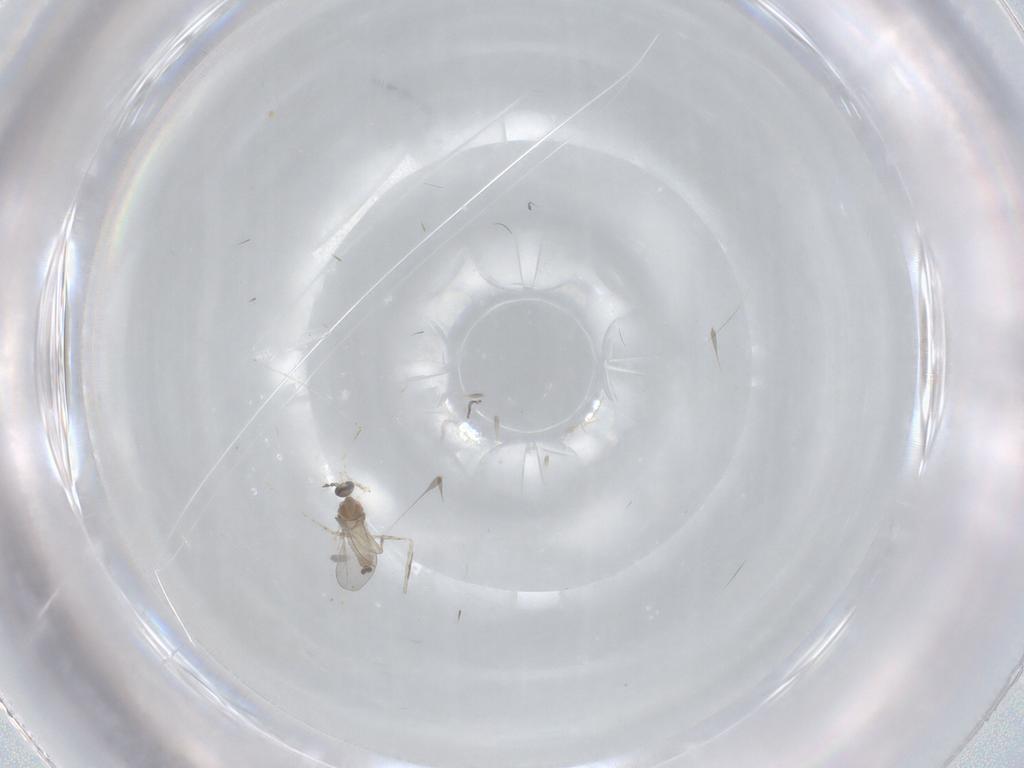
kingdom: Animalia
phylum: Arthropoda
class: Insecta
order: Diptera
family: Cecidomyiidae
